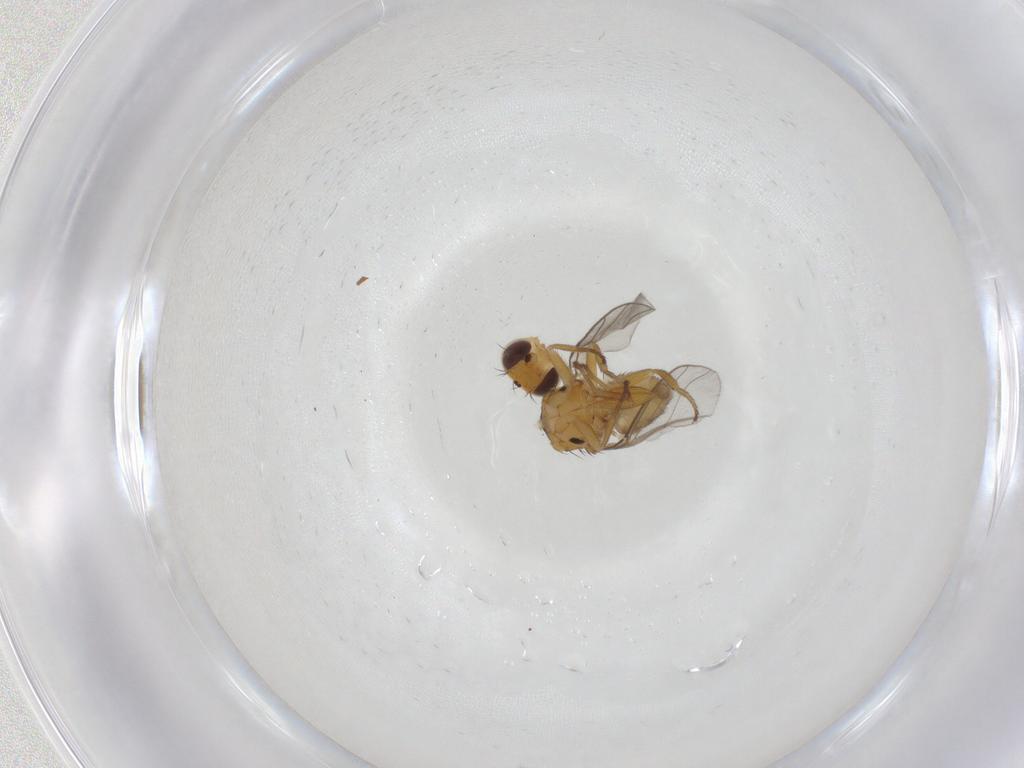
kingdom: Animalia
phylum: Arthropoda
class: Insecta
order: Diptera
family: Chloropidae
